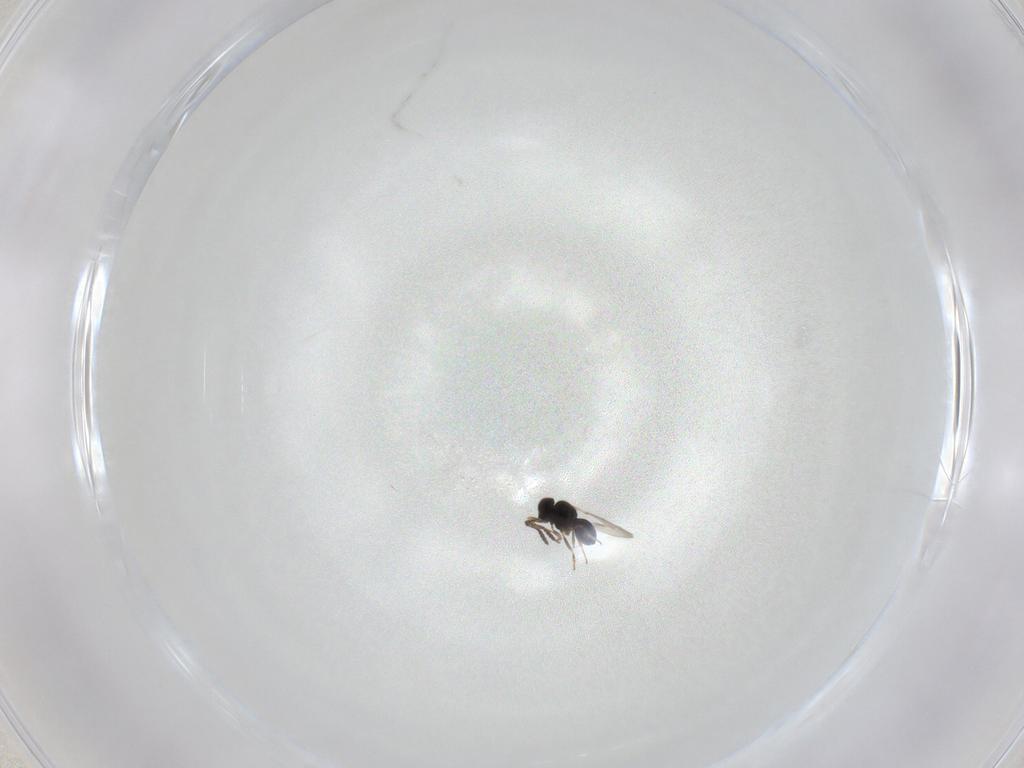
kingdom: Animalia
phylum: Arthropoda
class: Insecta
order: Hymenoptera
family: Scelionidae
